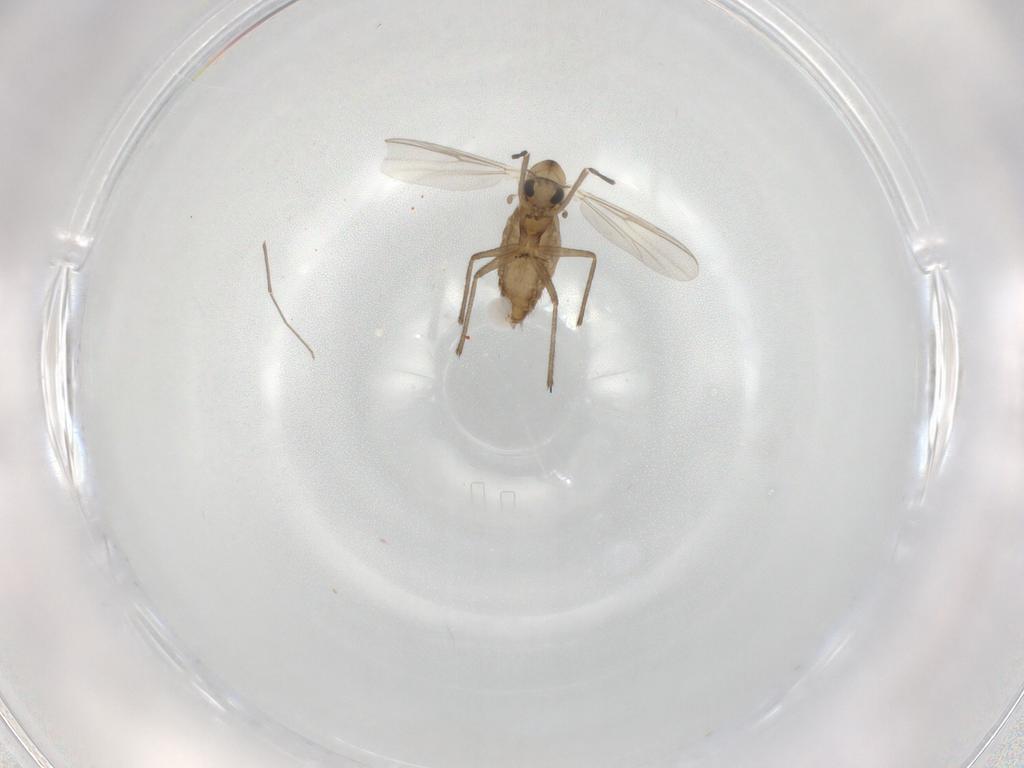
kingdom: Animalia
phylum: Arthropoda
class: Insecta
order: Diptera
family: Chironomidae
